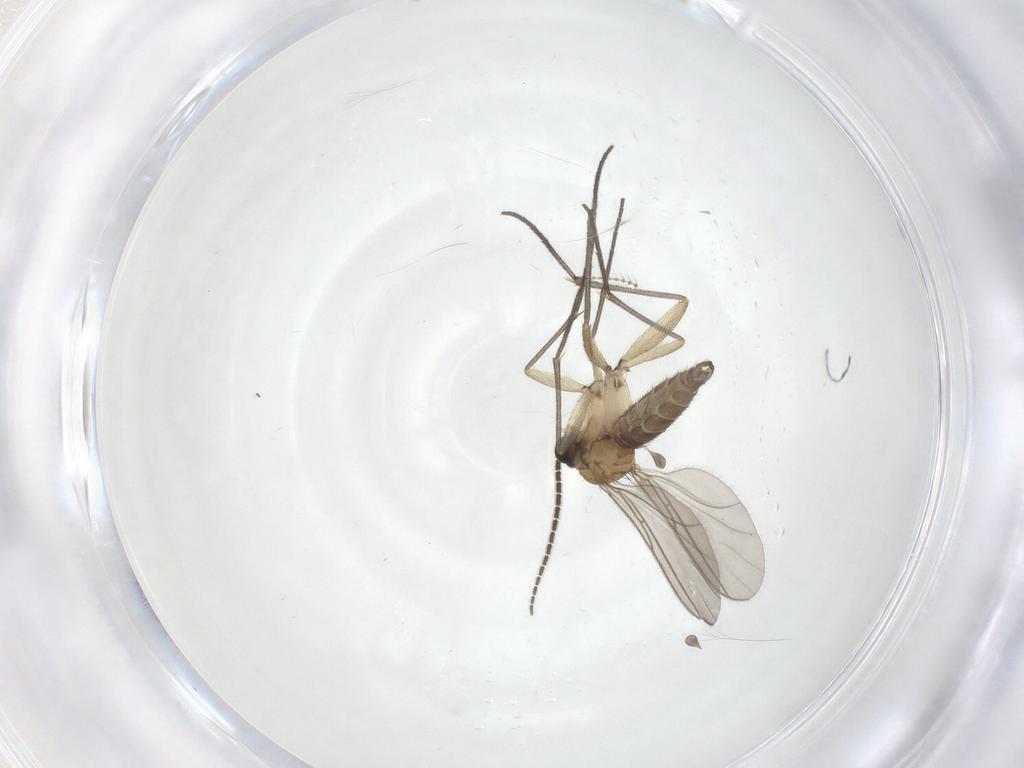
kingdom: Animalia
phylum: Arthropoda
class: Insecta
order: Diptera
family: Sciaridae
